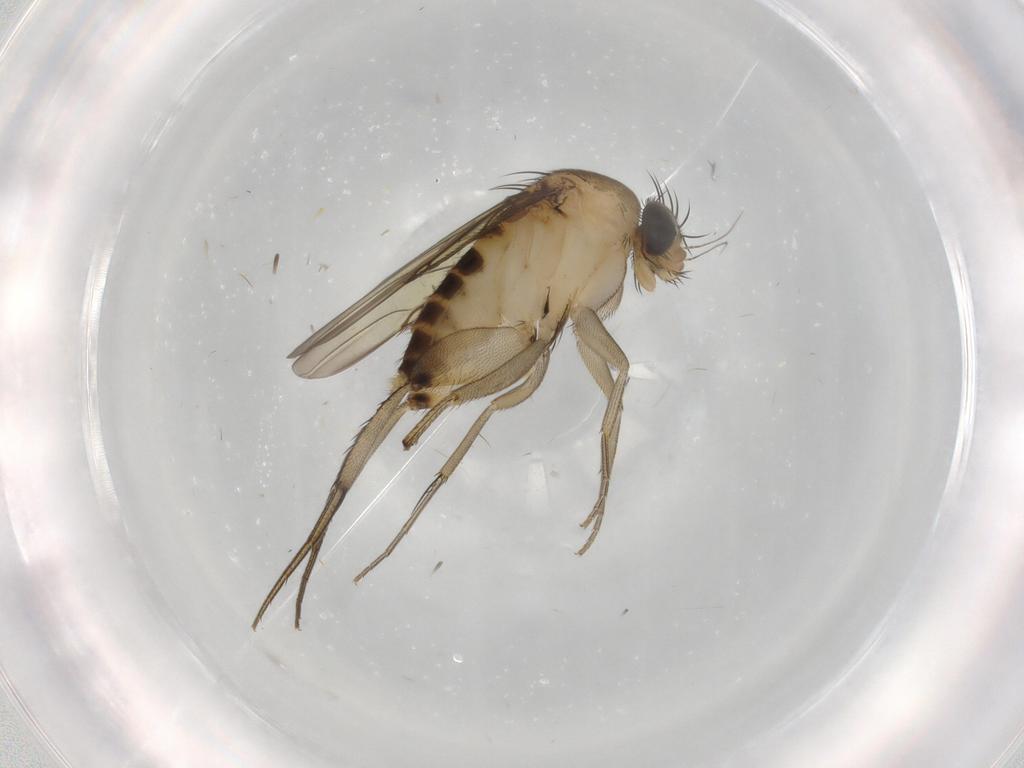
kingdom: Animalia
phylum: Arthropoda
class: Insecta
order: Diptera
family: Phoridae
